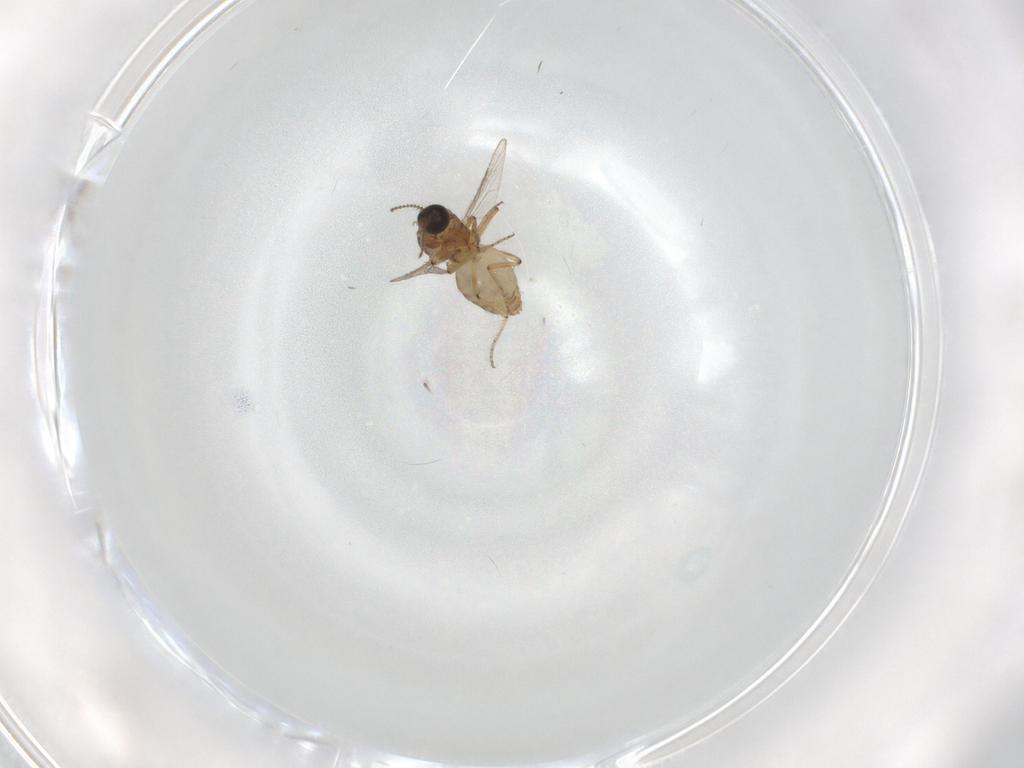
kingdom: Animalia
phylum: Arthropoda
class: Insecta
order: Diptera
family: Ceratopogonidae
